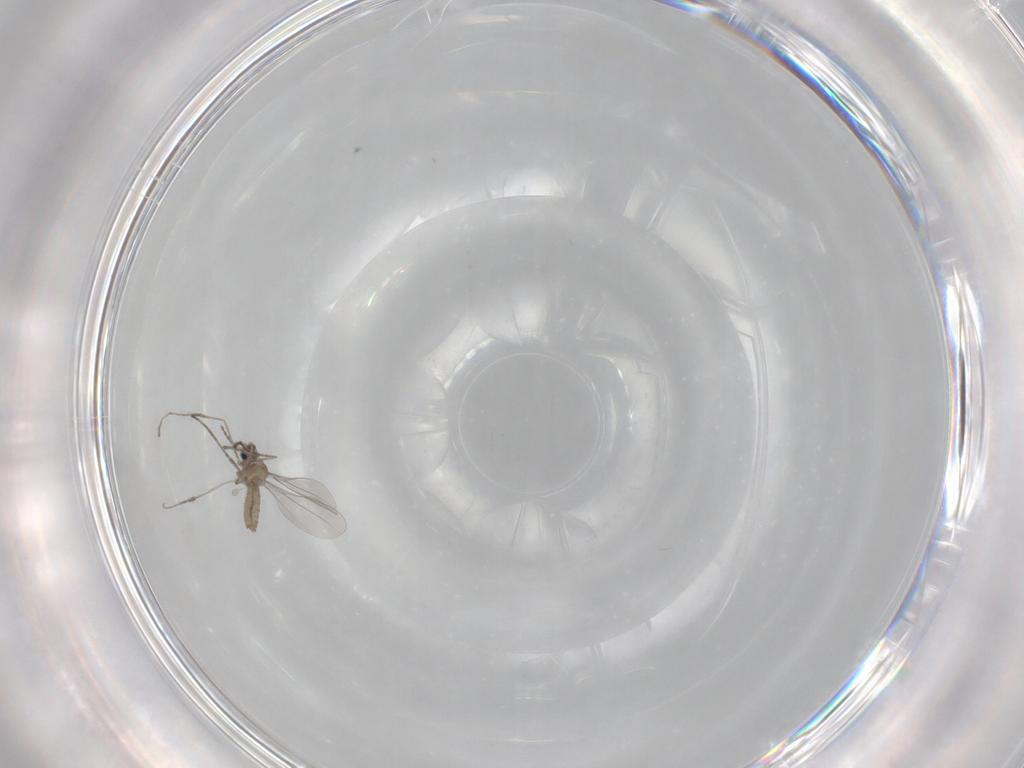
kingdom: Animalia
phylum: Arthropoda
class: Insecta
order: Diptera
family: Cecidomyiidae
